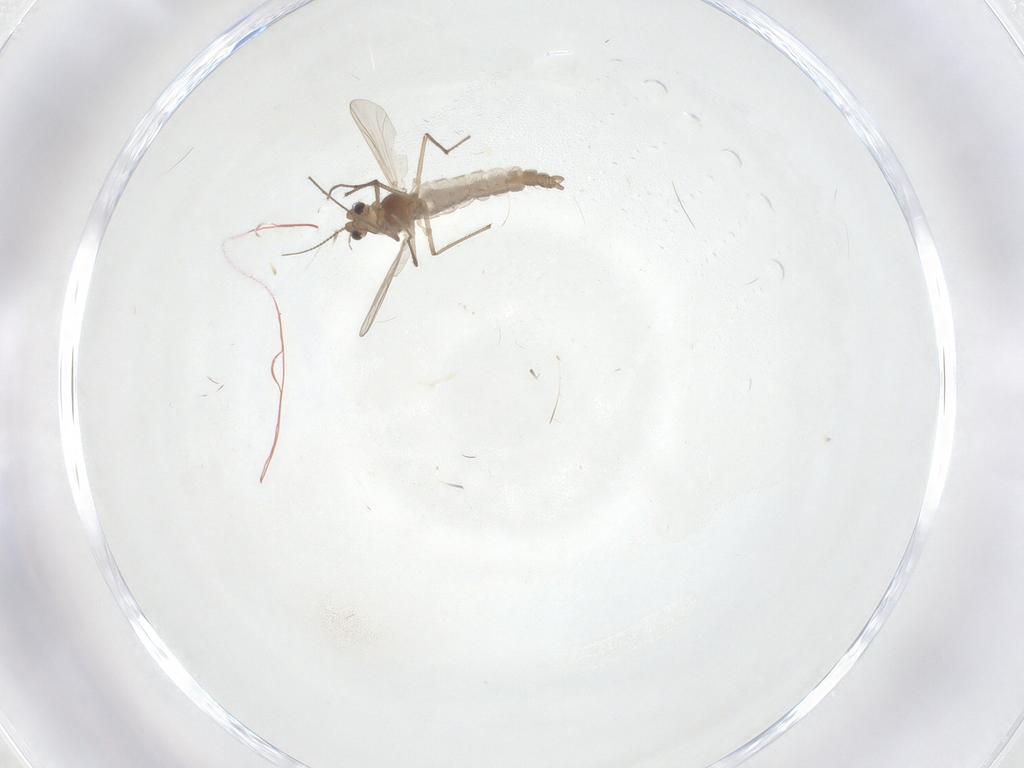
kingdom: Animalia
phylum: Arthropoda
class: Insecta
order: Diptera
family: Chironomidae
